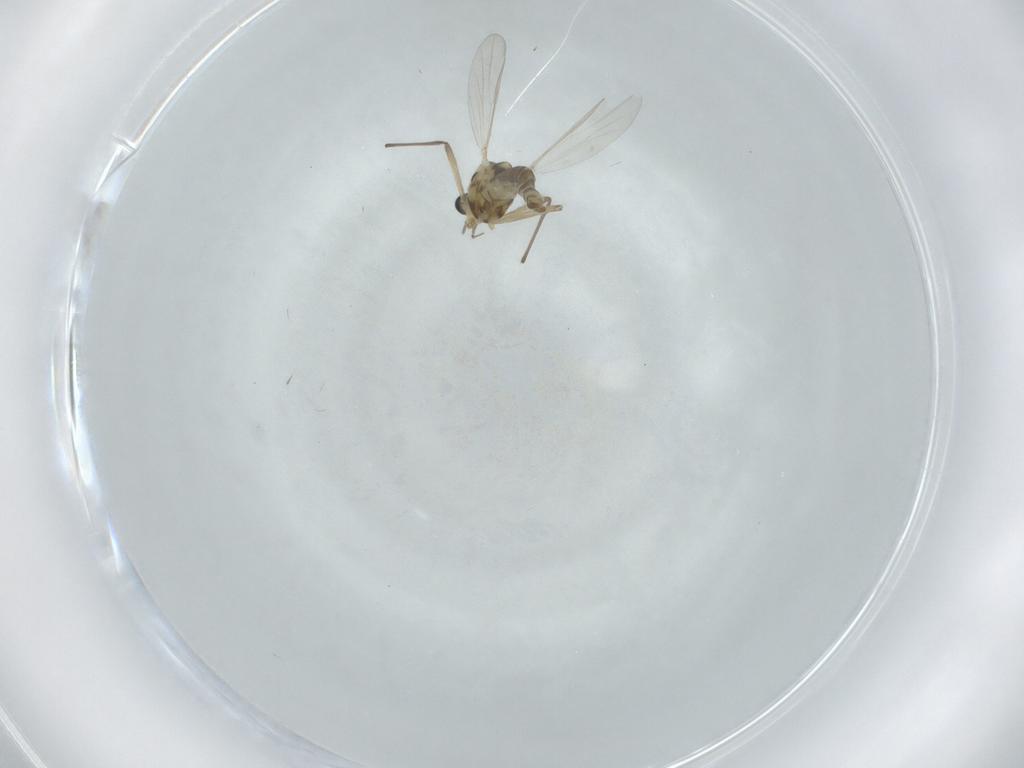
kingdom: Animalia
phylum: Arthropoda
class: Insecta
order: Diptera
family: Chironomidae
